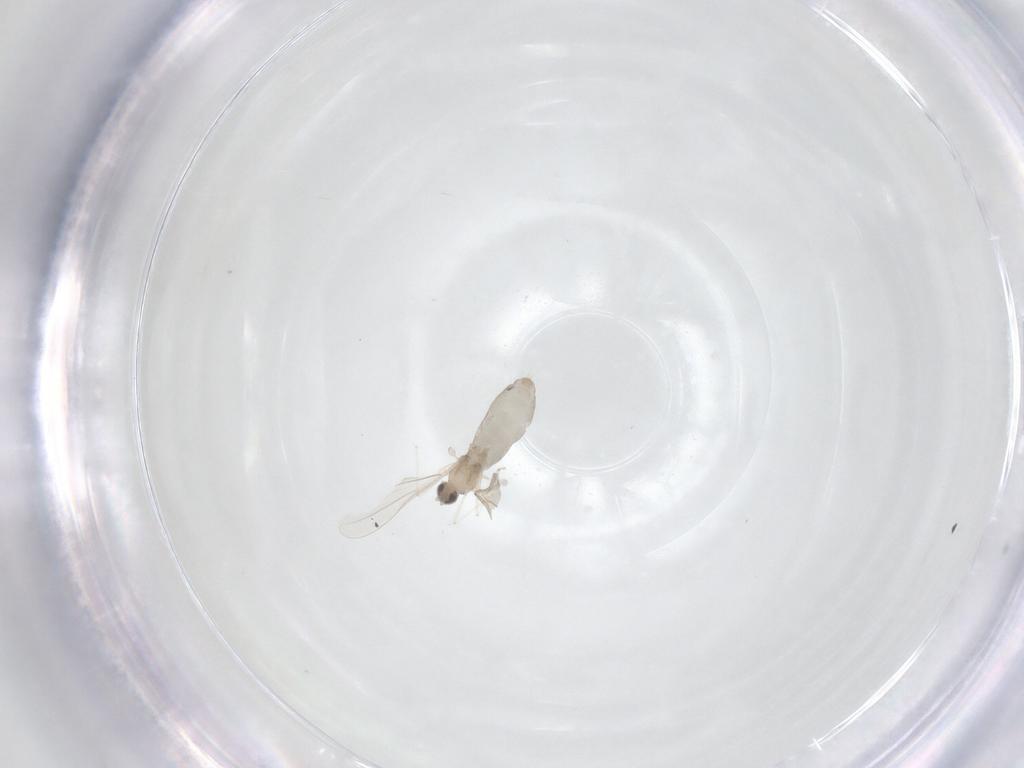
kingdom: Animalia
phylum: Arthropoda
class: Insecta
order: Diptera
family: Cecidomyiidae
